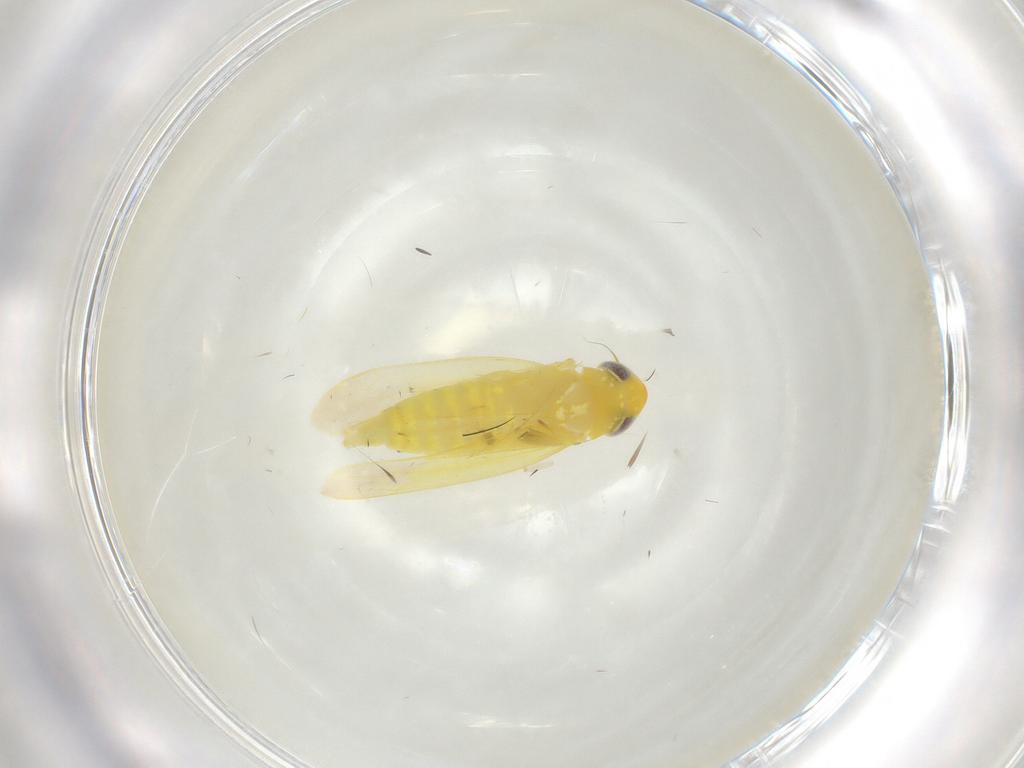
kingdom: Animalia
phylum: Arthropoda
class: Insecta
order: Hemiptera
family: Cicadellidae
